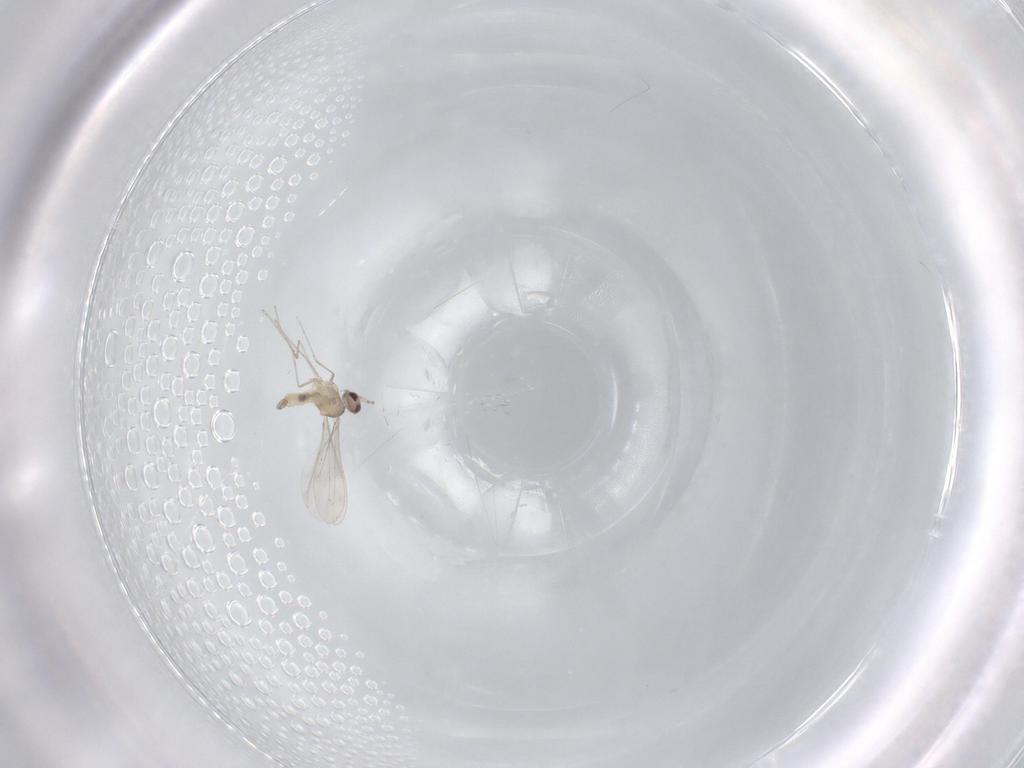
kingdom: Animalia
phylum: Arthropoda
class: Insecta
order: Diptera
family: Cecidomyiidae
